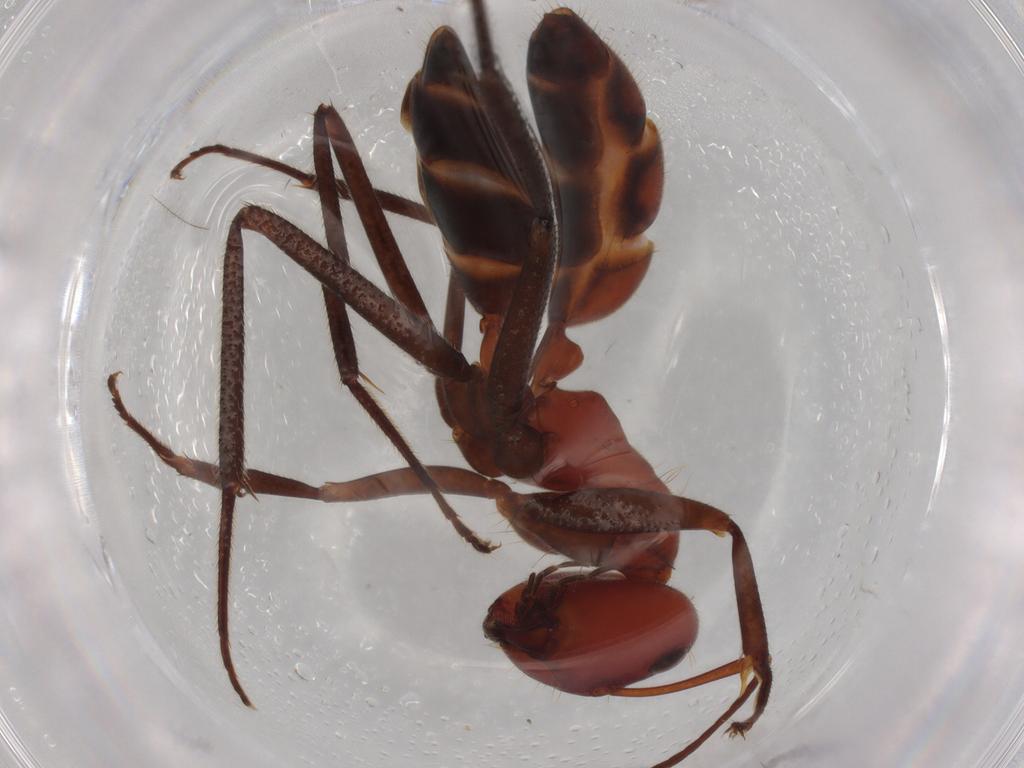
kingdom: Animalia
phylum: Arthropoda
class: Insecta
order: Hymenoptera
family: Formicidae
